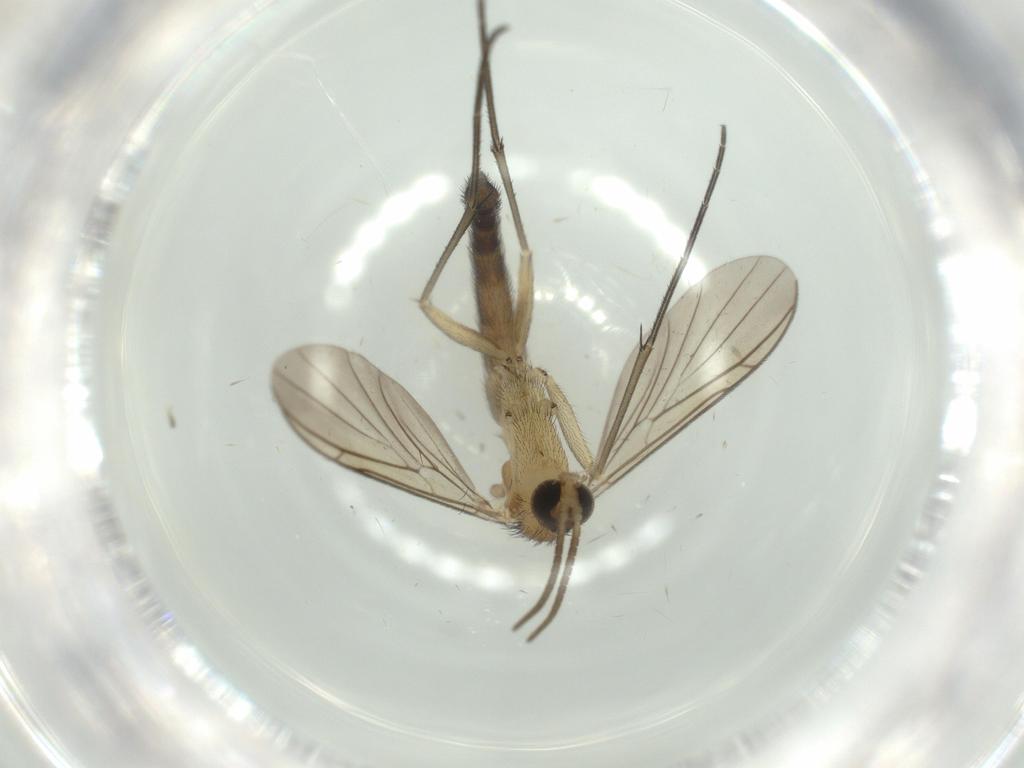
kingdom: Animalia
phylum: Arthropoda
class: Insecta
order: Diptera
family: Keroplatidae
